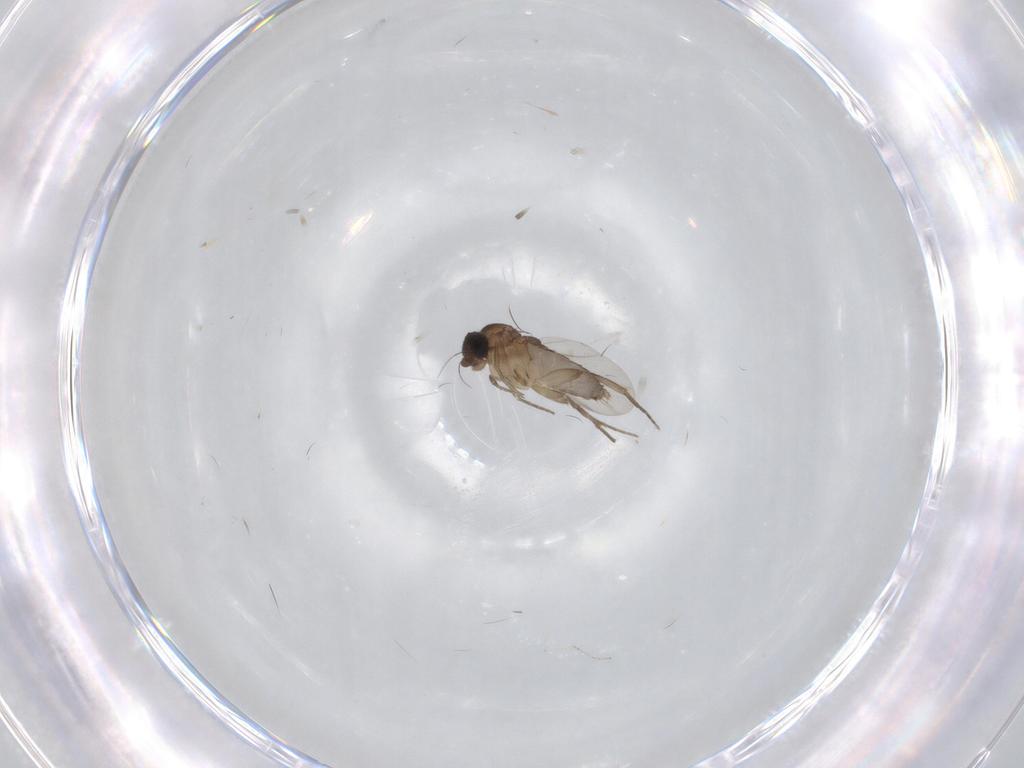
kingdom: Animalia
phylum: Arthropoda
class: Insecta
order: Diptera
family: Phoridae
